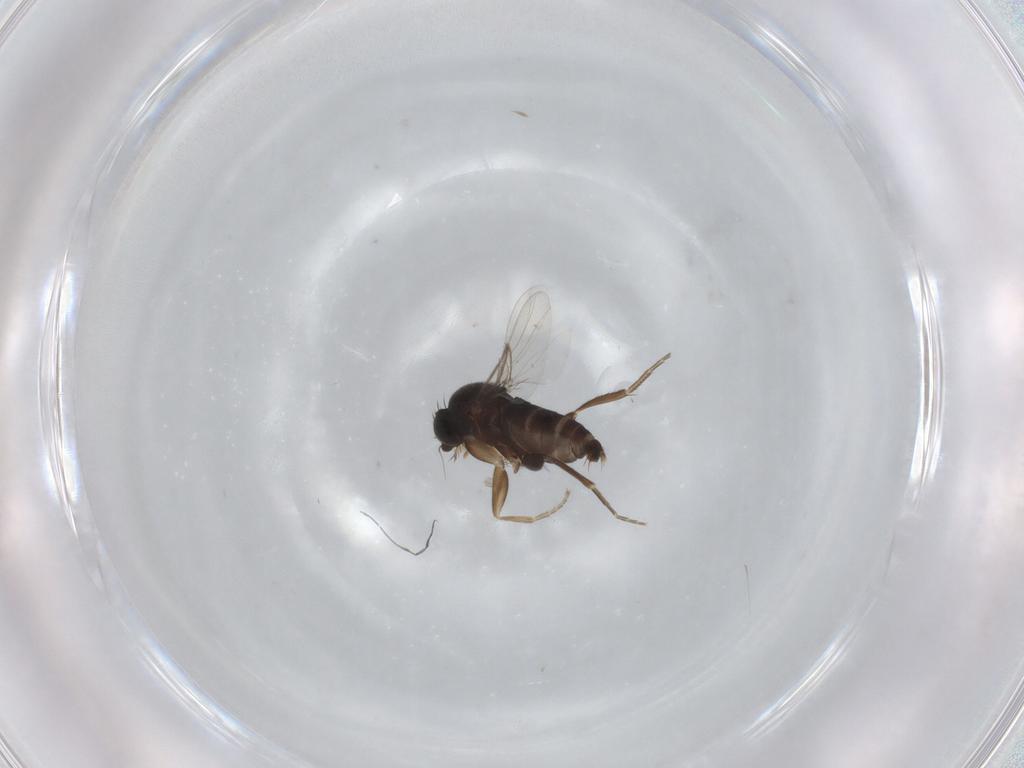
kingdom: Animalia
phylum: Arthropoda
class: Insecta
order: Diptera
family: Phoridae
